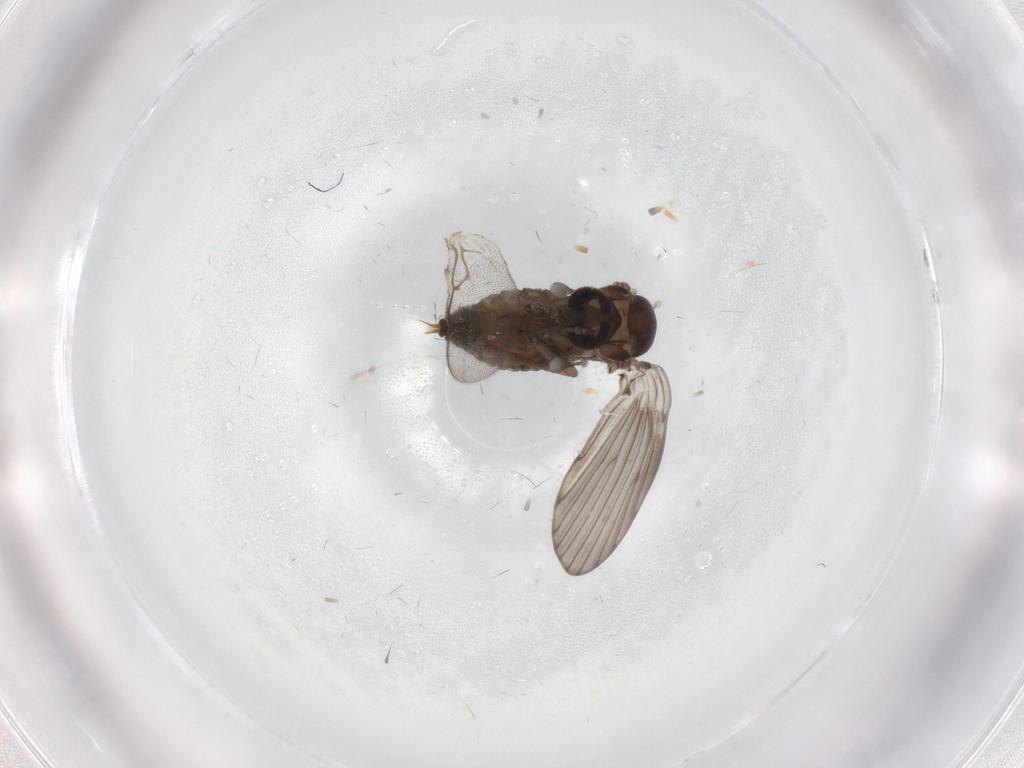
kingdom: Animalia
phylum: Arthropoda
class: Insecta
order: Diptera
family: Psychodidae
